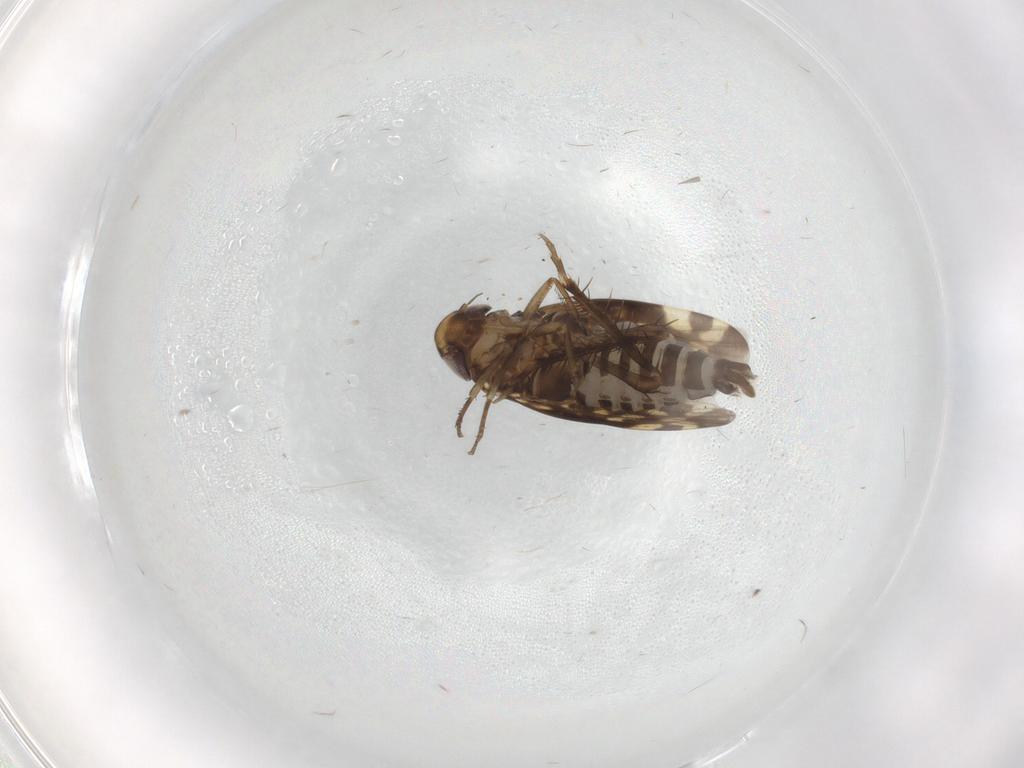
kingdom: Animalia
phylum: Arthropoda
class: Insecta
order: Hemiptera
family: Cicadellidae
